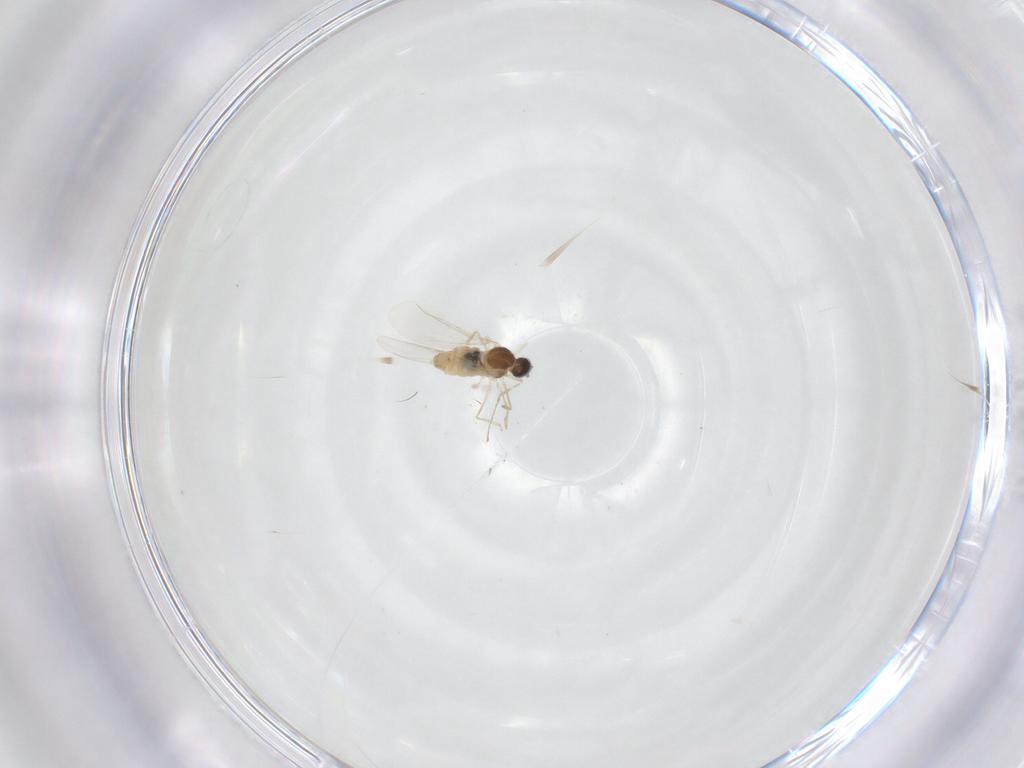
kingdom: Animalia
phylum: Arthropoda
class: Insecta
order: Diptera
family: Cecidomyiidae
